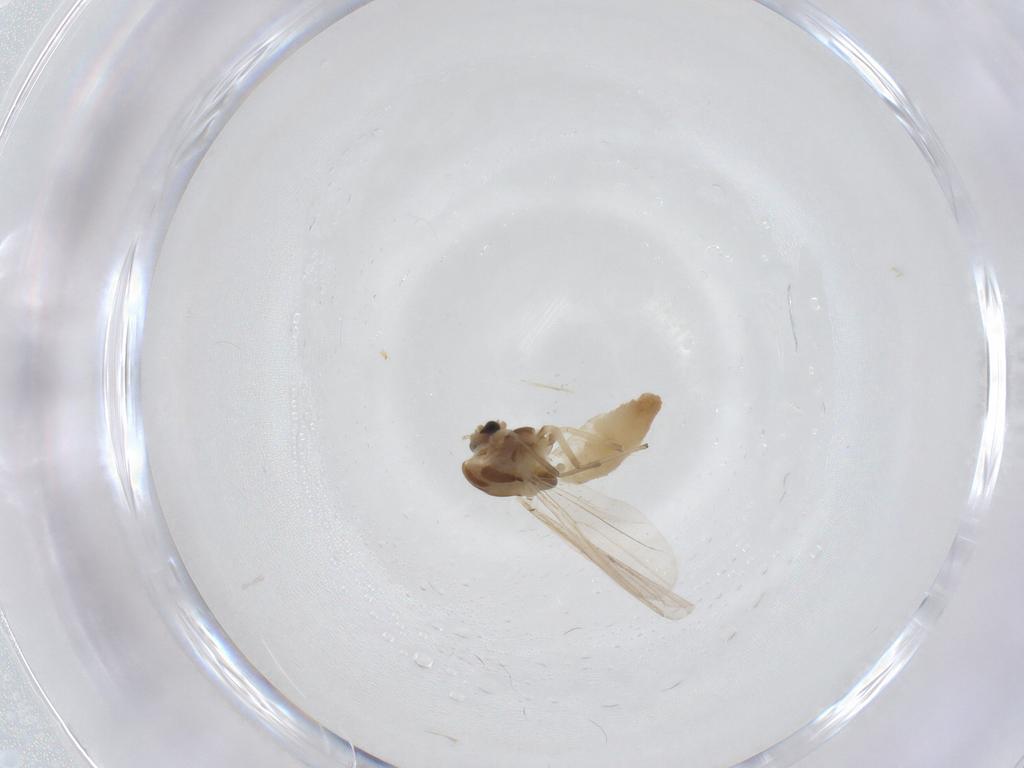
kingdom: Animalia
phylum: Arthropoda
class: Insecta
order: Diptera
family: Chironomidae
